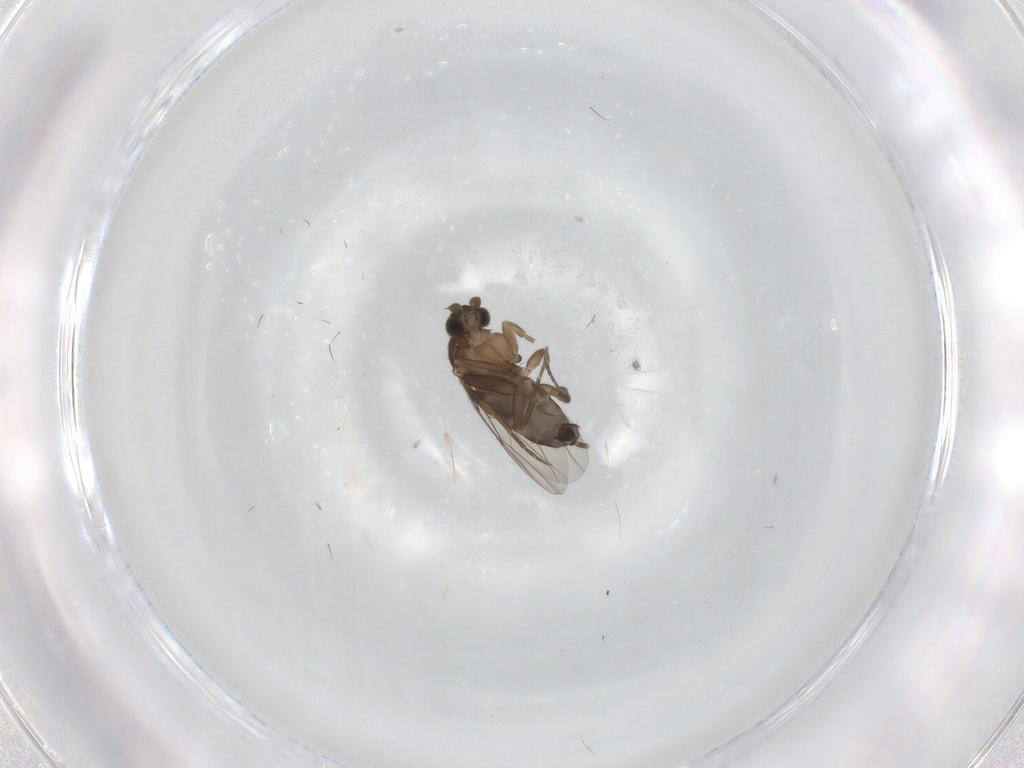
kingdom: Animalia
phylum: Arthropoda
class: Insecta
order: Diptera
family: Phoridae
